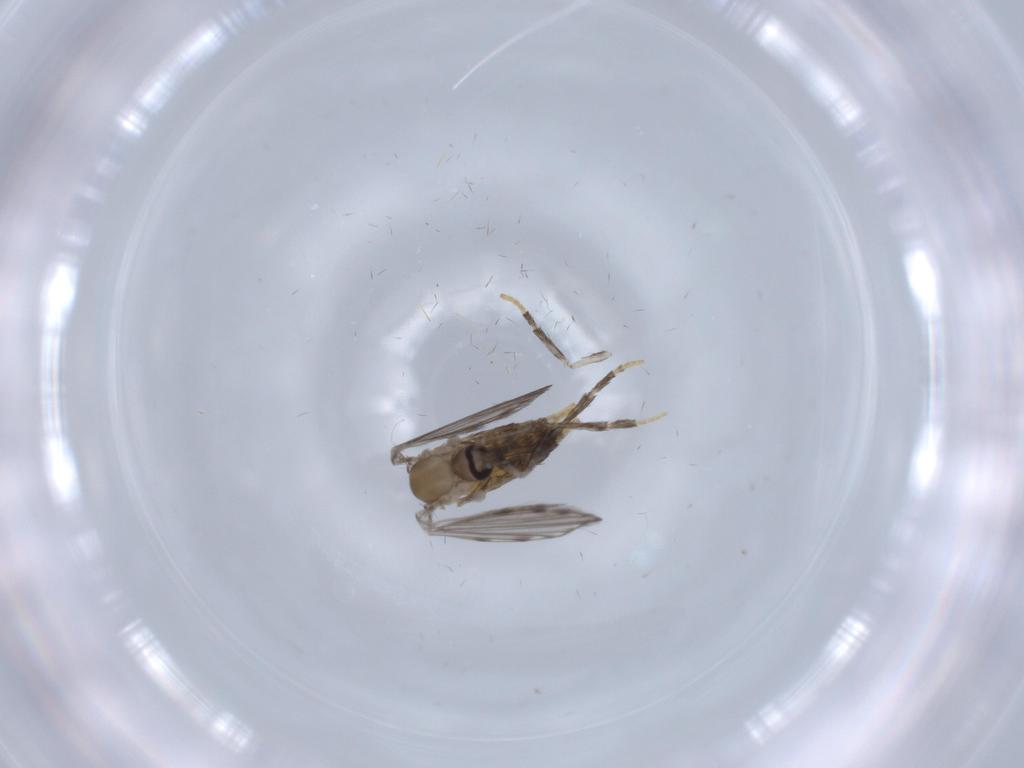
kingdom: Animalia
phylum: Arthropoda
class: Insecta
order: Diptera
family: Psychodidae
